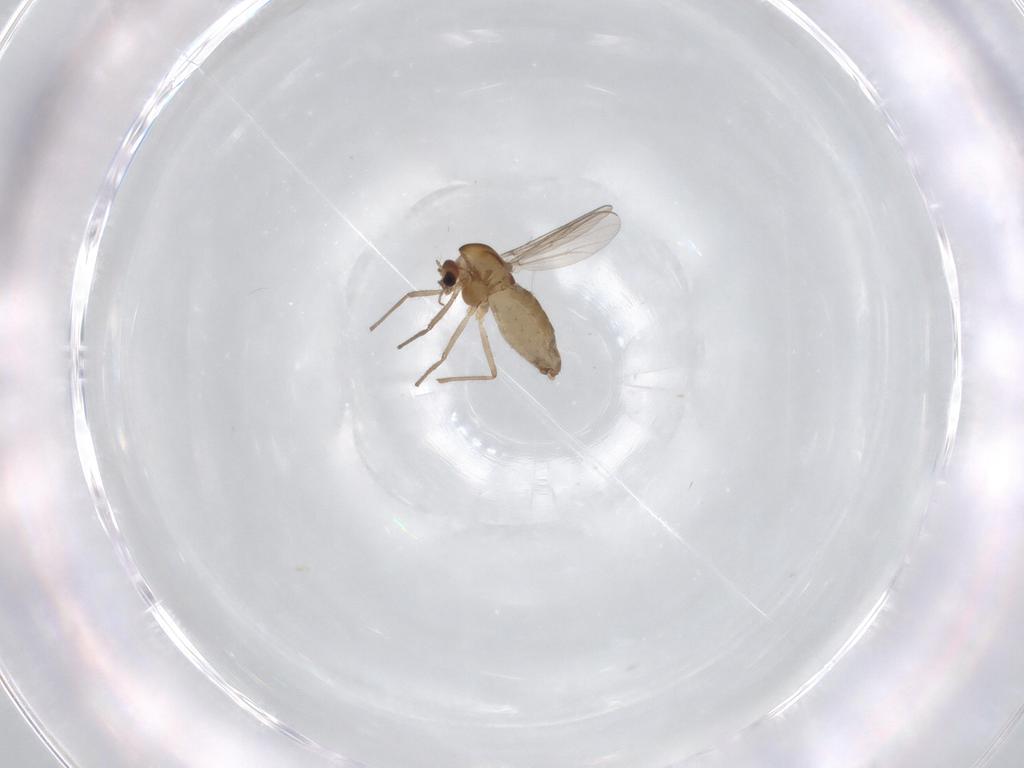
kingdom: Animalia
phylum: Arthropoda
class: Insecta
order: Diptera
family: Chironomidae
